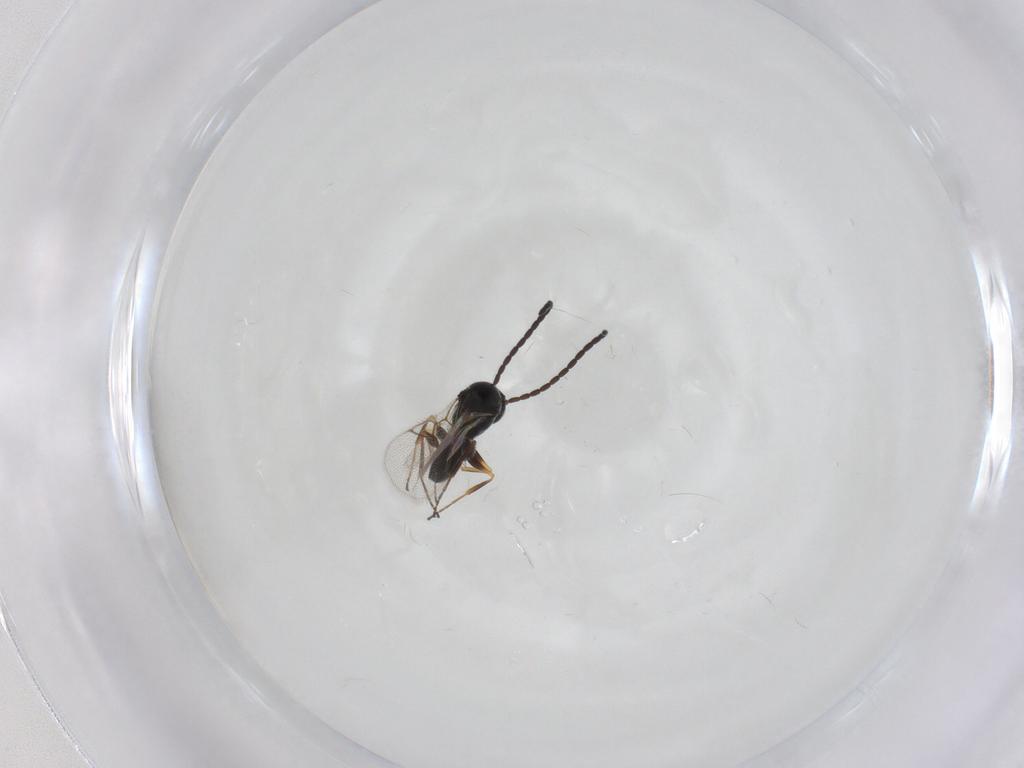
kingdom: Animalia
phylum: Arthropoda
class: Insecta
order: Hymenoptera
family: Figitidae
